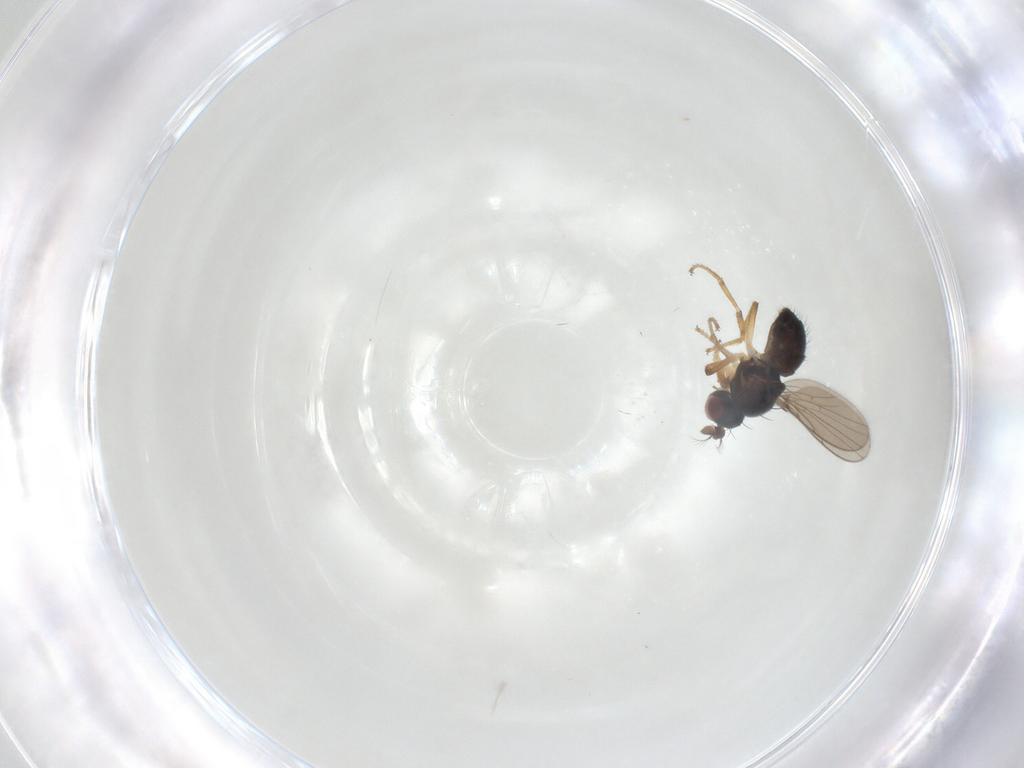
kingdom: Animalia
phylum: Arthropoda
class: Insecta
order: Diptera
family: Ephydridae
